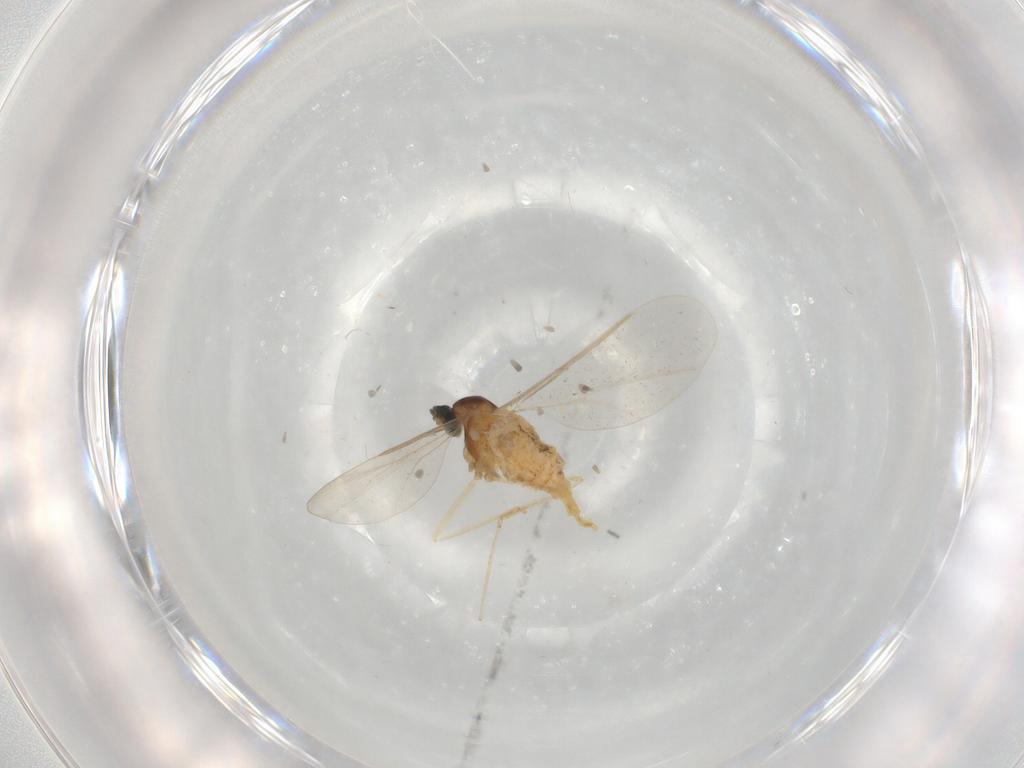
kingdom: Animalia
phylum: Arthropoda
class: Insecta
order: Diptera
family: Cecidomyiidae
